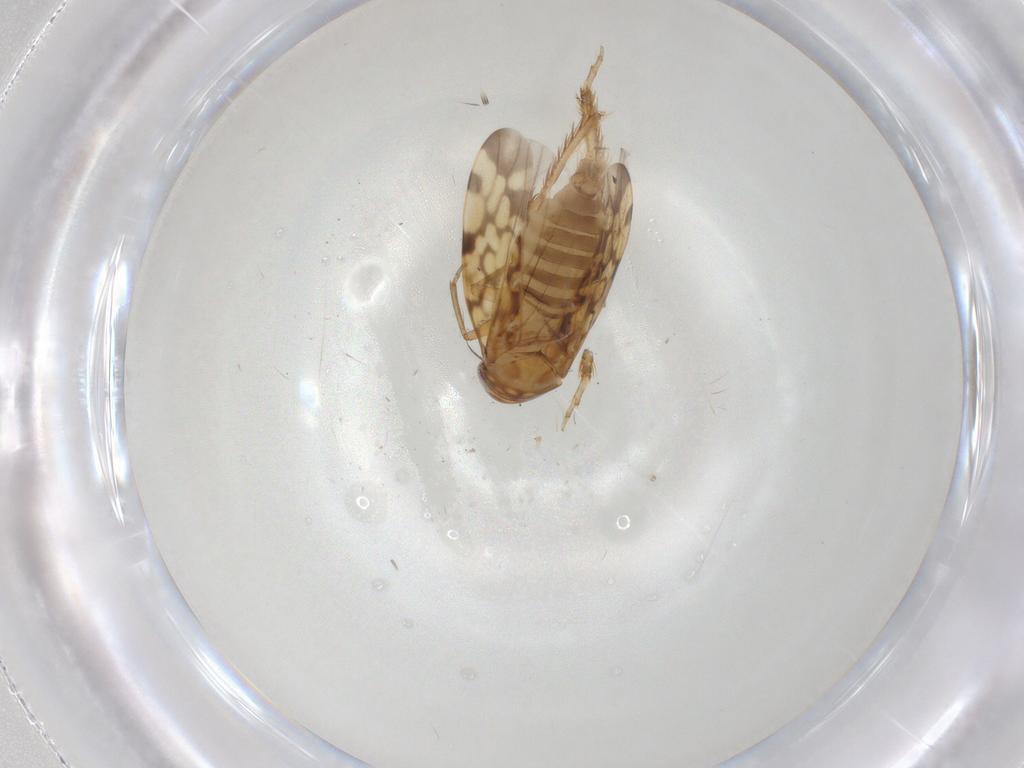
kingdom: Animalia
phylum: Arthropoda
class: Insecta
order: Hemiptera
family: Cicadellidae
